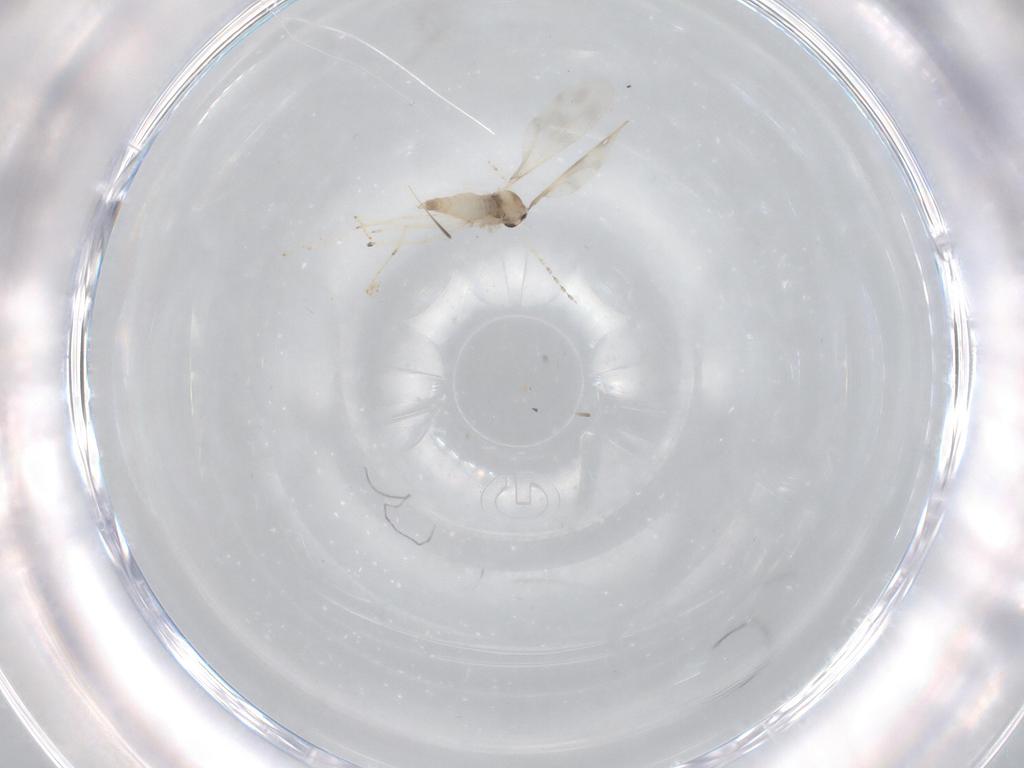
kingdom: Animalia
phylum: Arthropoda
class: Insecta
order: Diptera
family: Cecidomyiidae
